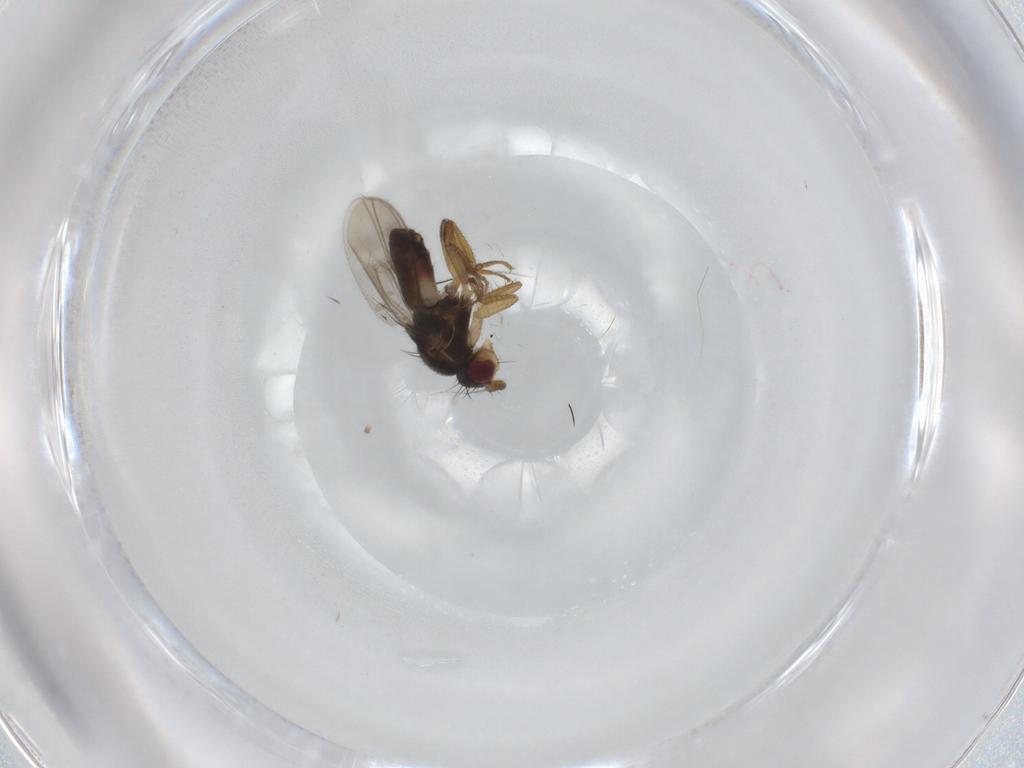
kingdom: Animalia
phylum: Arthropoda
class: Insecta
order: Diptera
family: Sphaeroceridae
